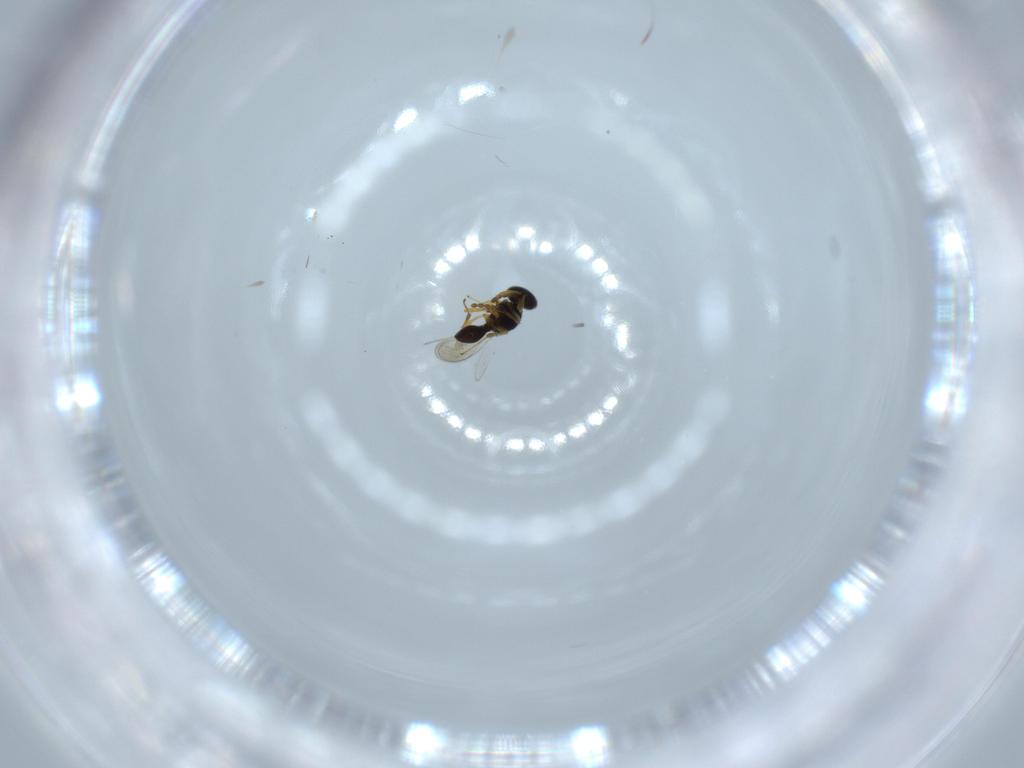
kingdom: Animalia
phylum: Arthropoda
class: Insecta
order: Hymenoptera
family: Platygastridae
